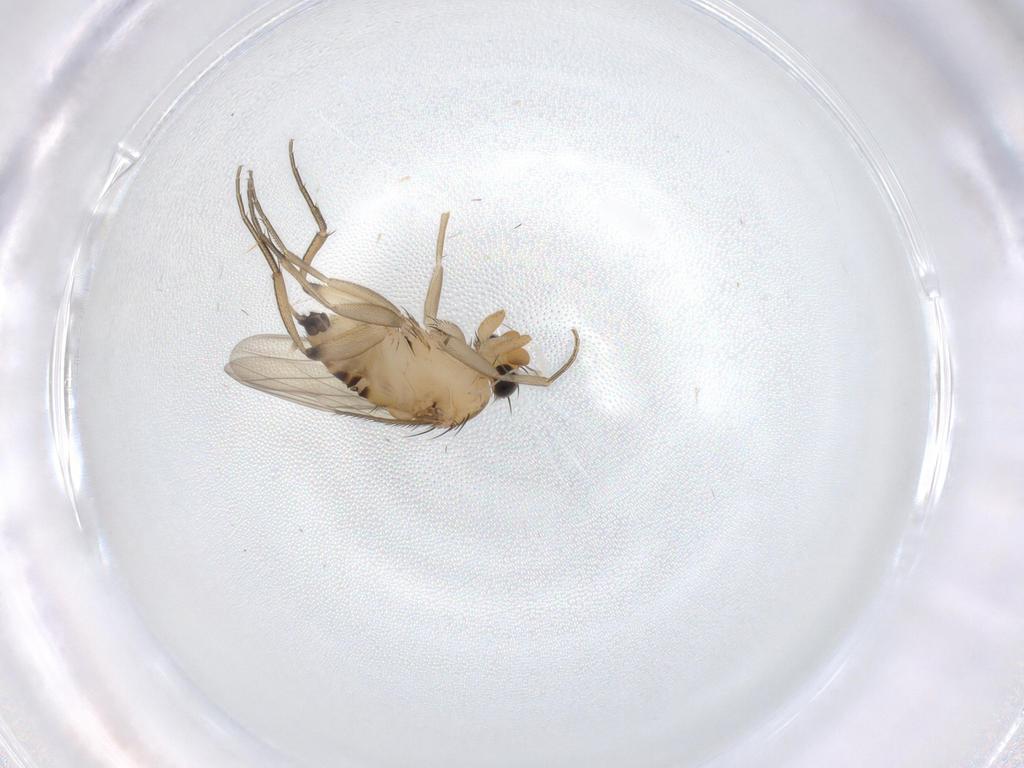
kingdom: Animalia
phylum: Arthropoda
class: Insecta
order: Diptera
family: Phoridae
